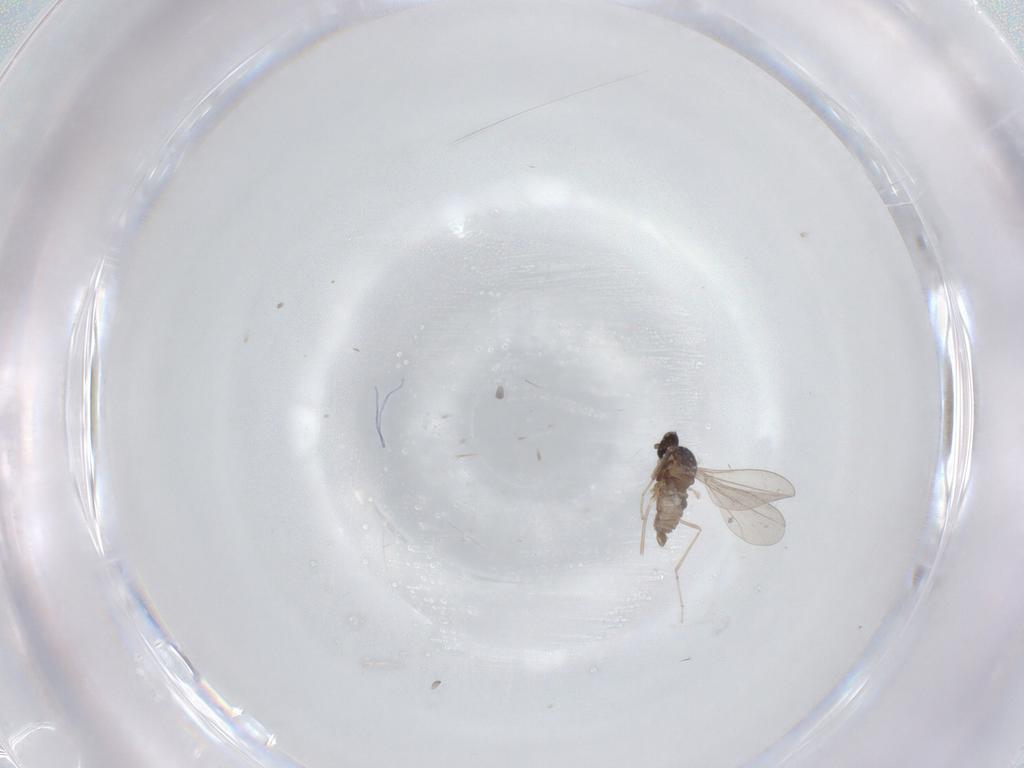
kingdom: Animalia
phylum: Arthropoda
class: Insecta
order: Diptera
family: Cecidomyiidae
